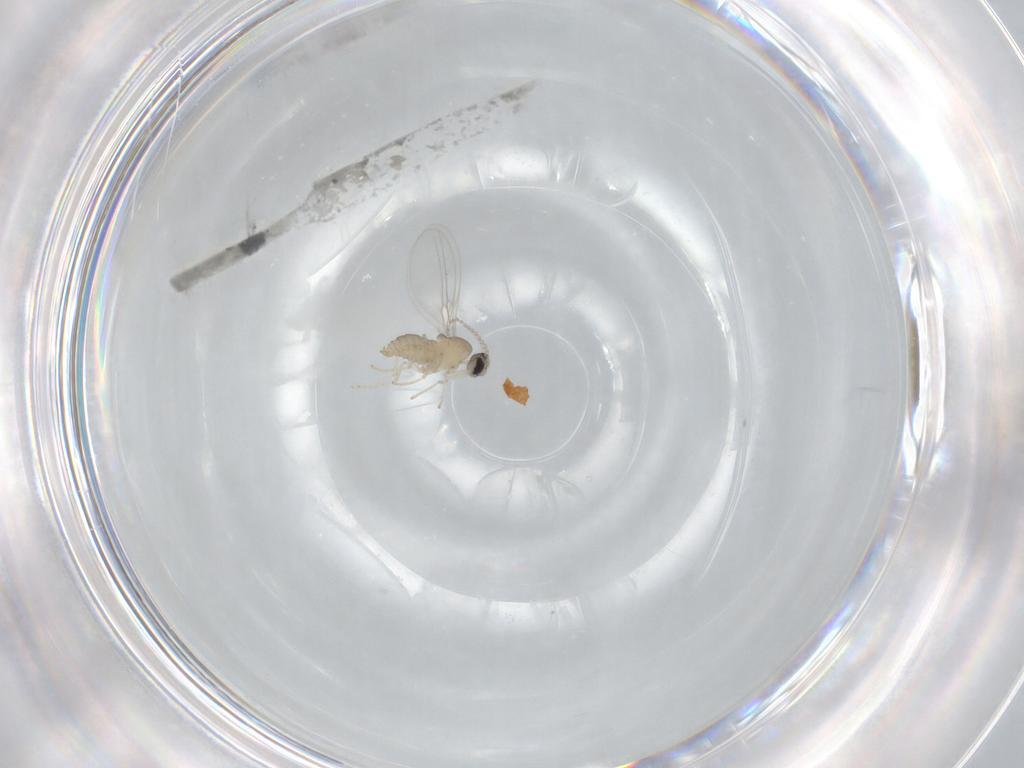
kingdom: Animalia
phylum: Arthropoda
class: Insecta
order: Diptera
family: Cecidomyiidae
